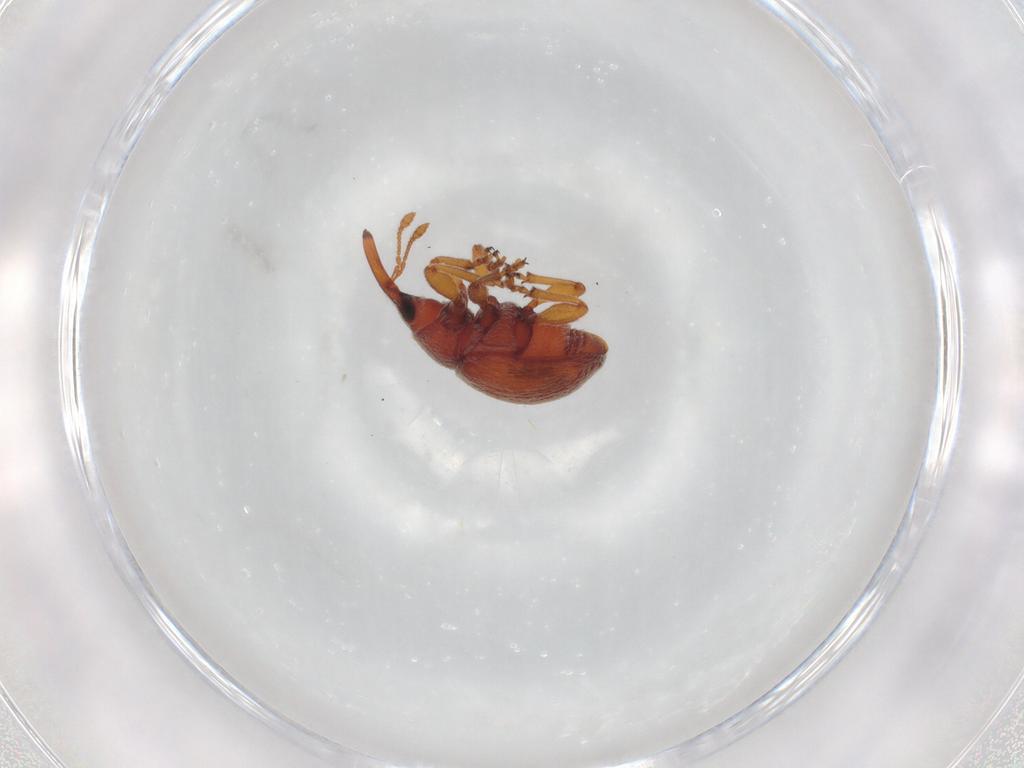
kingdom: Animalia
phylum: Arthropoda
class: Insecta
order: Coleoptera
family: Brentidae
